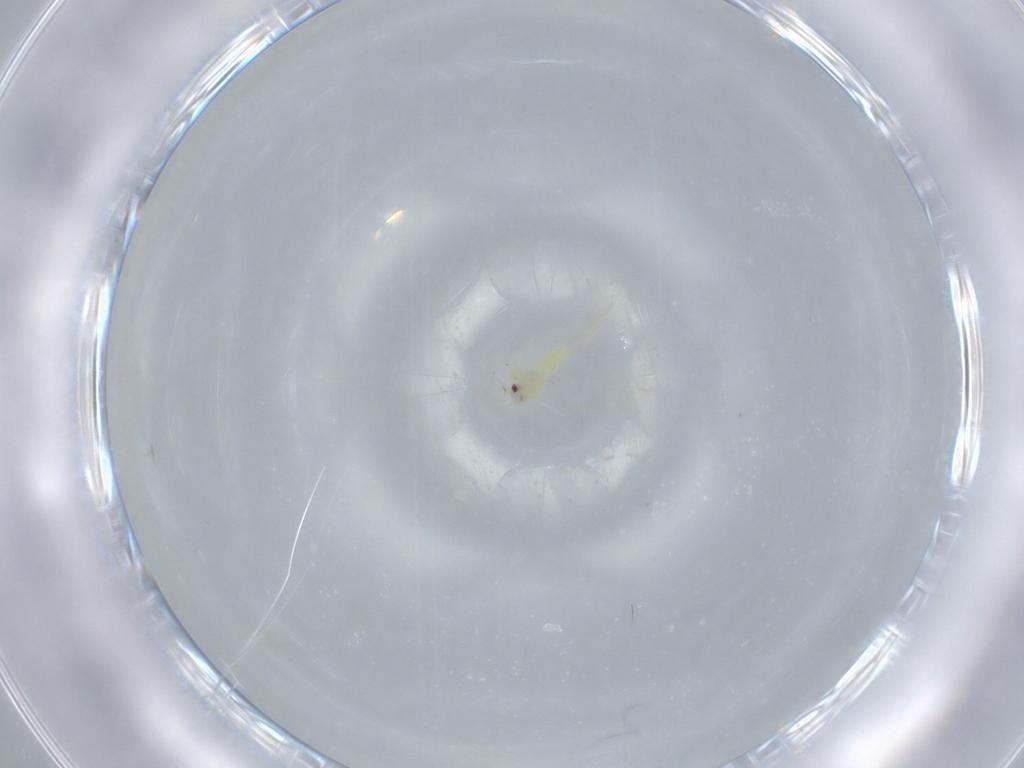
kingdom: Animalia
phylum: Arthropoda
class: Insecta
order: Hemiptera
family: Aleyrodidae
